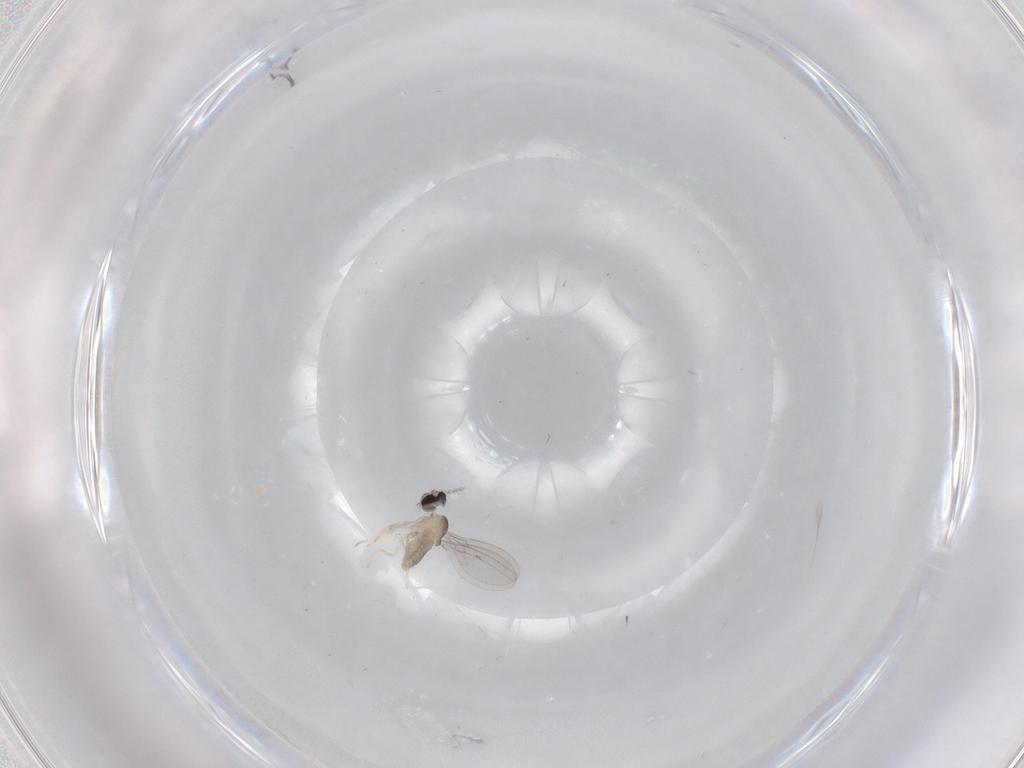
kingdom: Animalia
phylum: Arthropoda
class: Insecta
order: Diptera
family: Cecidomyiidae
